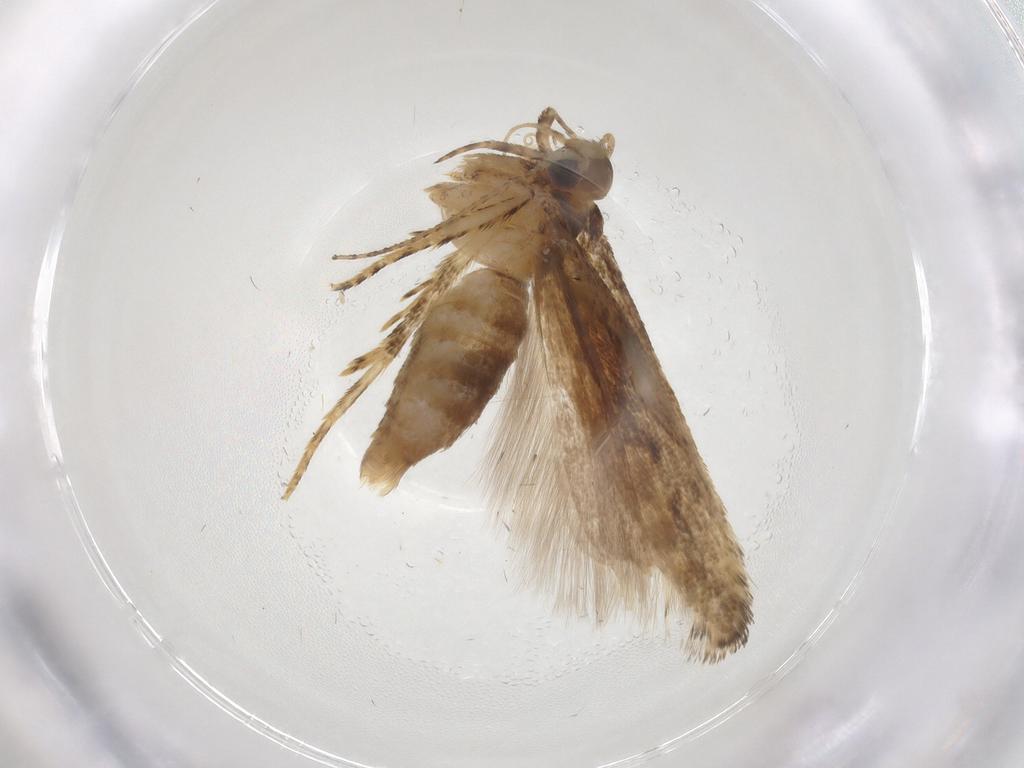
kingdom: Animalia
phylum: Arthropoda
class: Insecta
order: Lepidoptera
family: Gelechiidae
